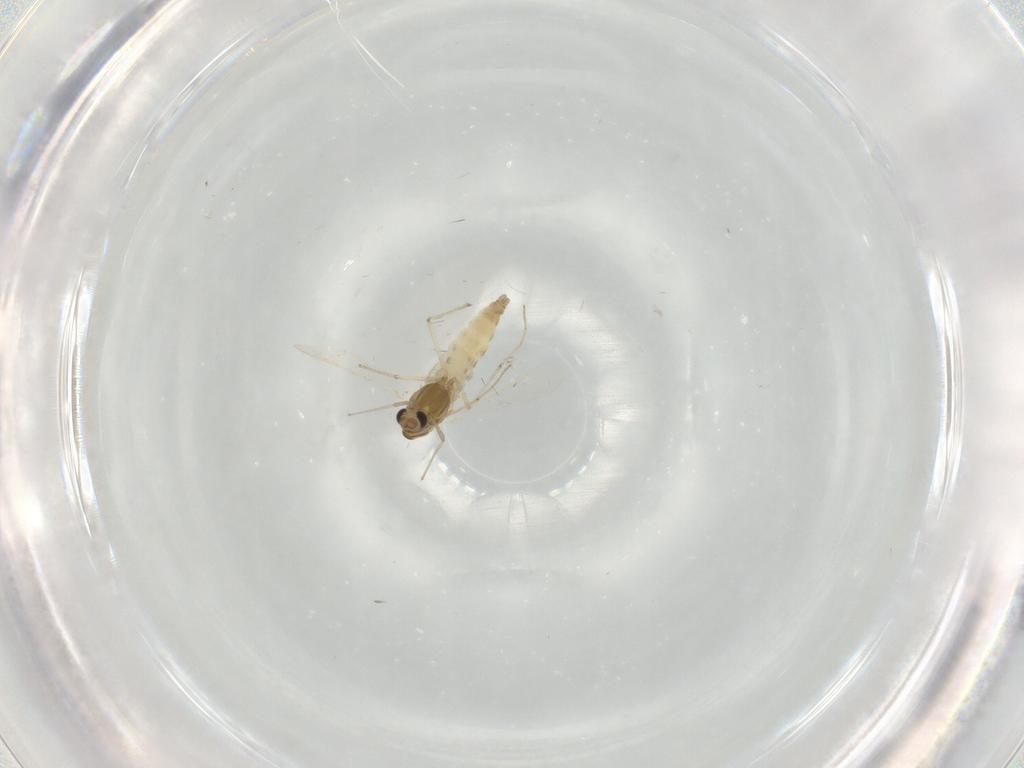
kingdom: Animalia
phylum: Arthropoda
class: Insecta
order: Diptera
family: Chironomidae
